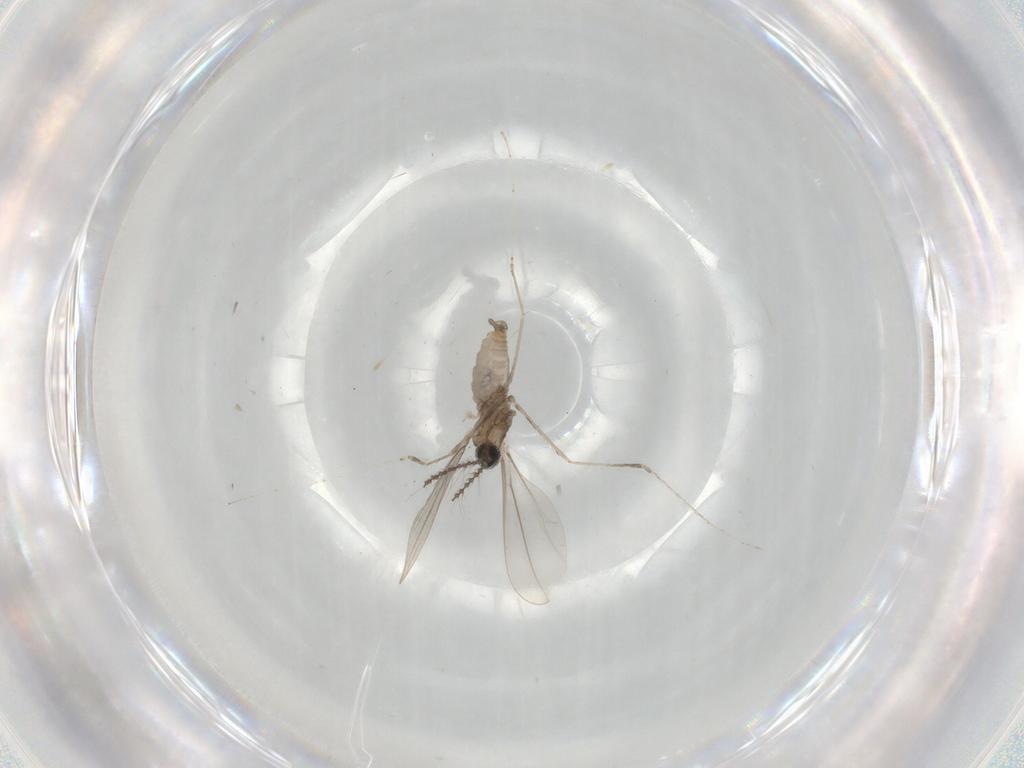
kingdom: Animalia
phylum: Arthropoda
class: Insecta
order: Diptera
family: Cecidomyiidae
